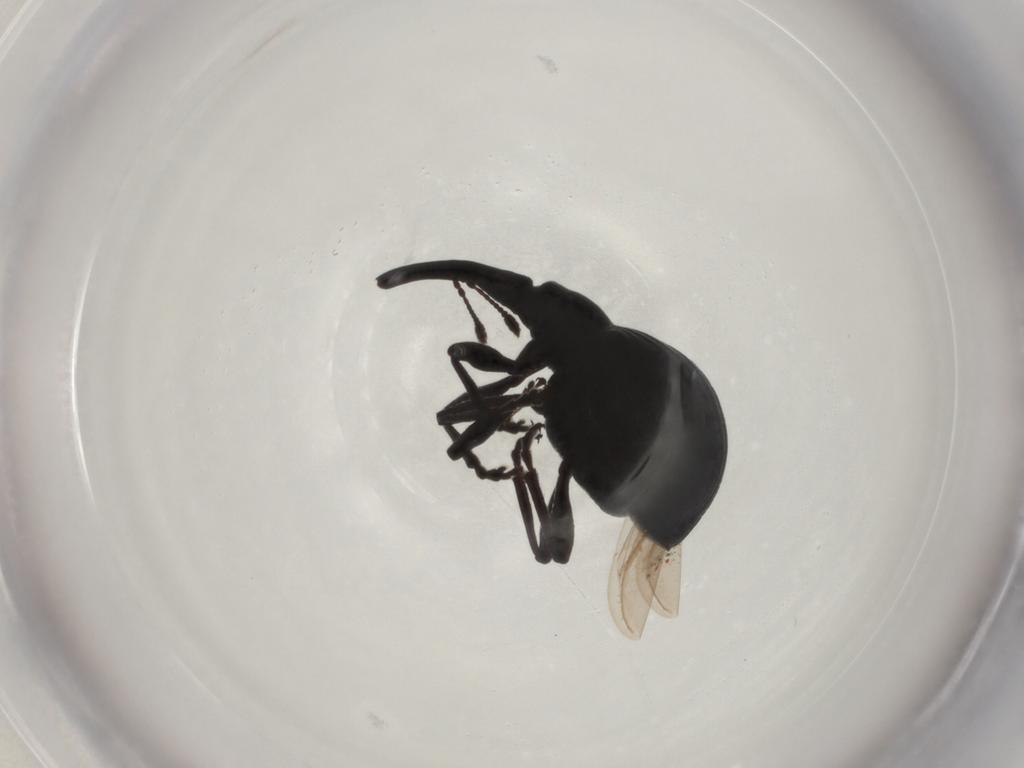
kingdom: Animalia
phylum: Arthropoda
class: Insecta
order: Coleoptera
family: Brentidae
